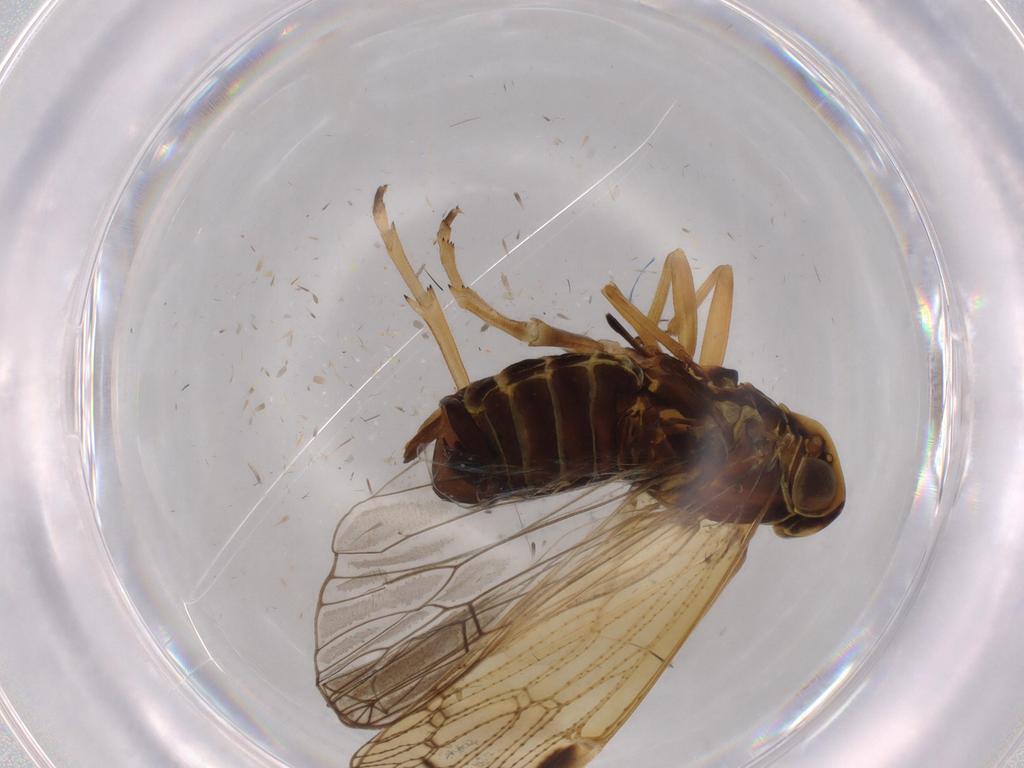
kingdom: Animalia
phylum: Arthropoda
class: Insecta
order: Hemiptera
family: Cixiidae
